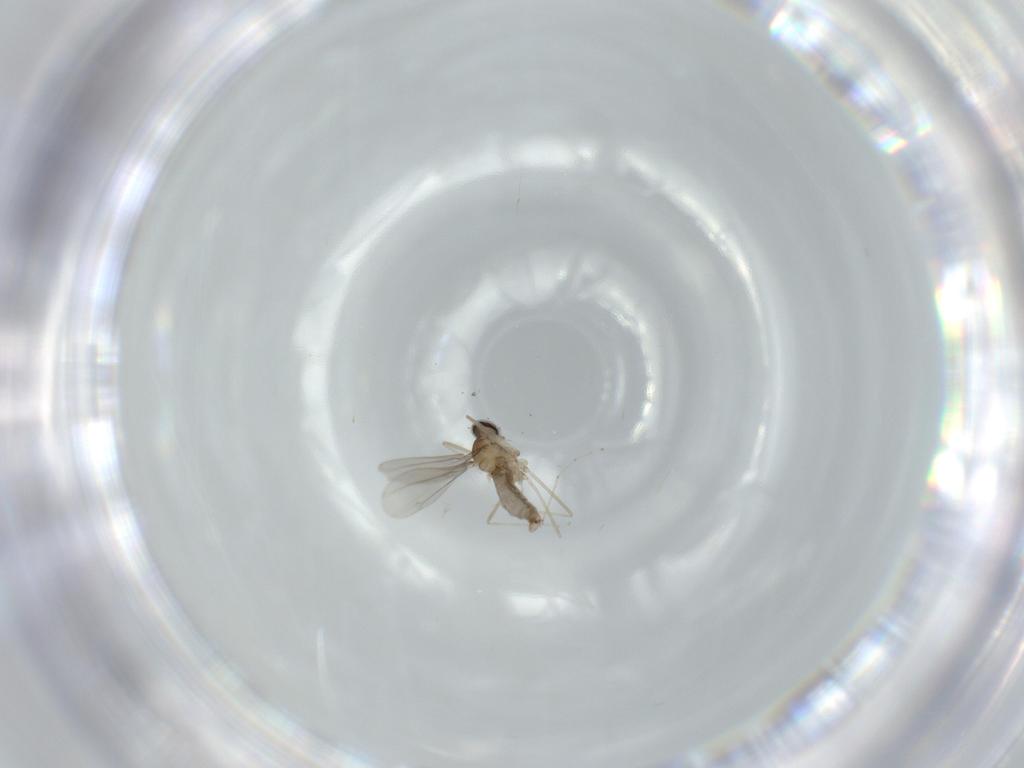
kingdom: Animalia
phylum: Arthropoda
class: Insecta
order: Diptera
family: Cecidomyiidae
